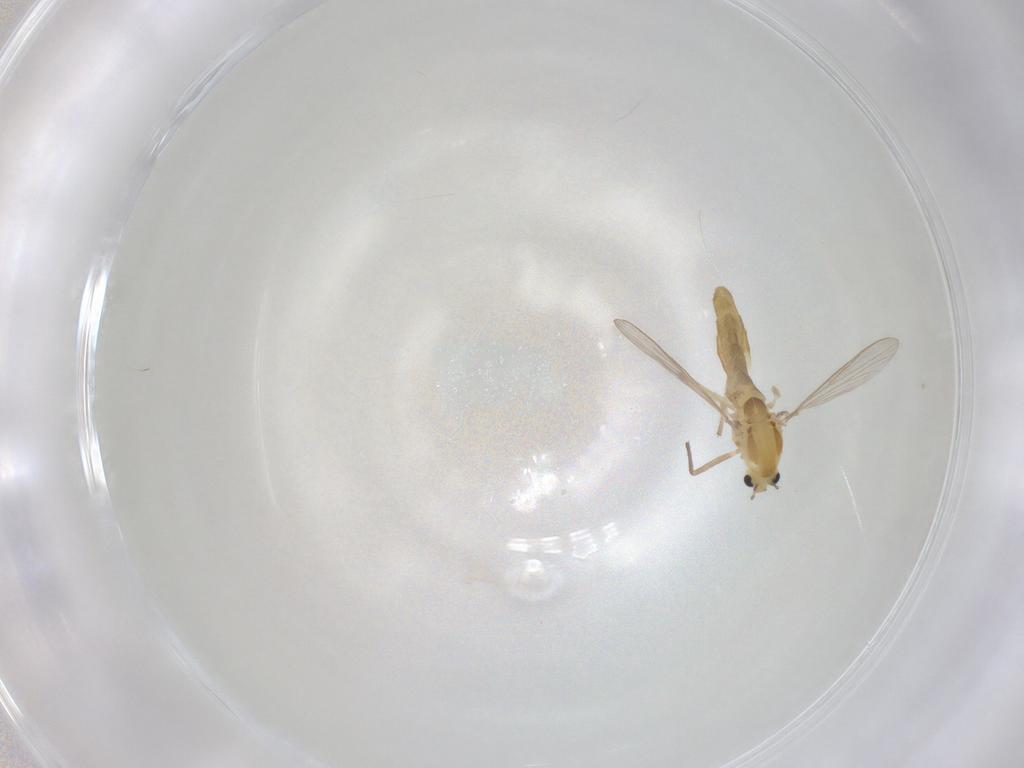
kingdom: Animalia
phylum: Arthropoda
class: Insecta
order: Diptera
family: Chironomidae
